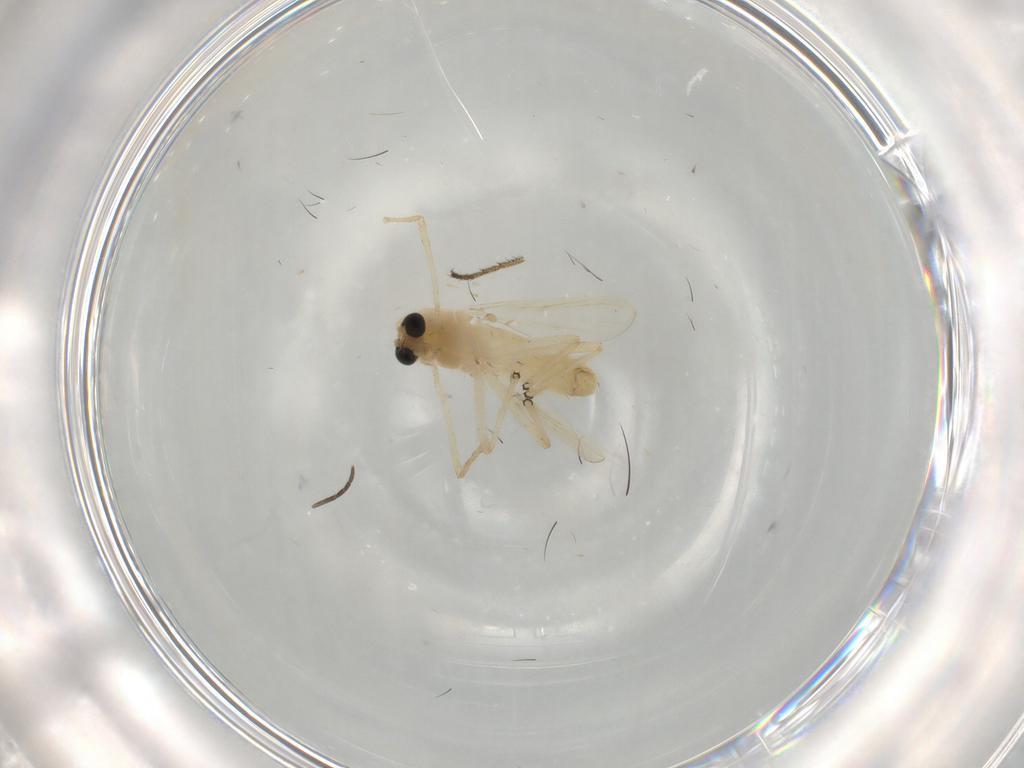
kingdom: Animalia
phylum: Arthropoda
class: Insecta
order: Diptera
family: Chironomidae
